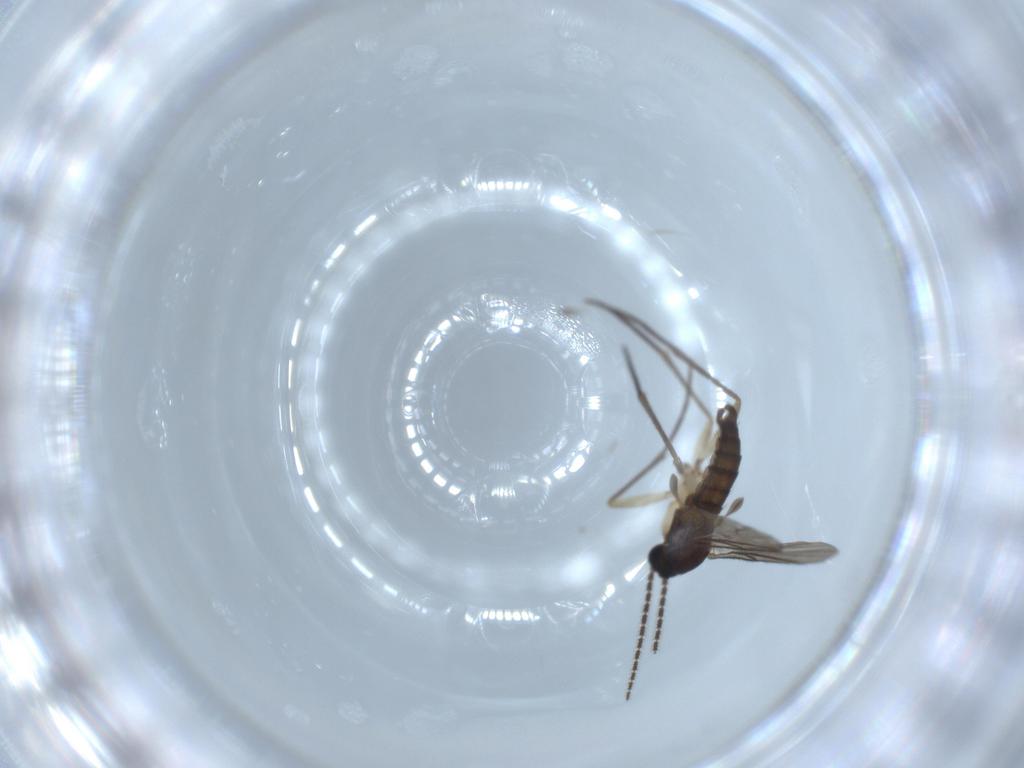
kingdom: Animalia
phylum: Arthropoda
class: Insecta
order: Diptera
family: Sciaridae
